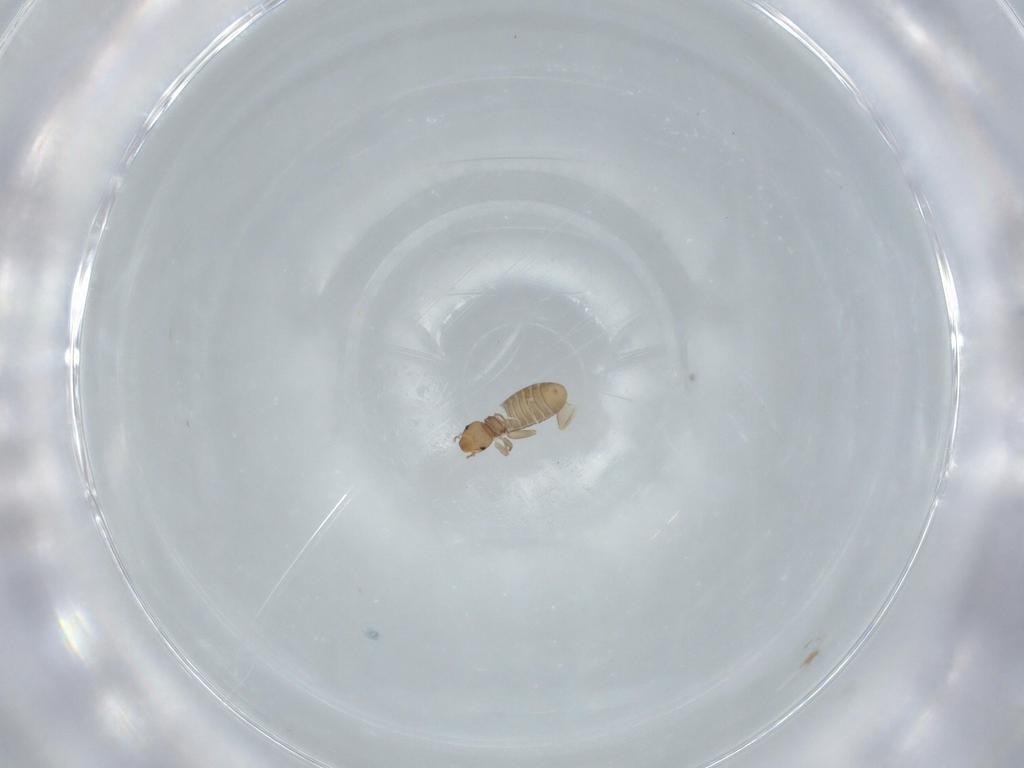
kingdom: Animalia
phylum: Arthropoda
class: Insecta
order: Psocodea
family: Liposcelididae
